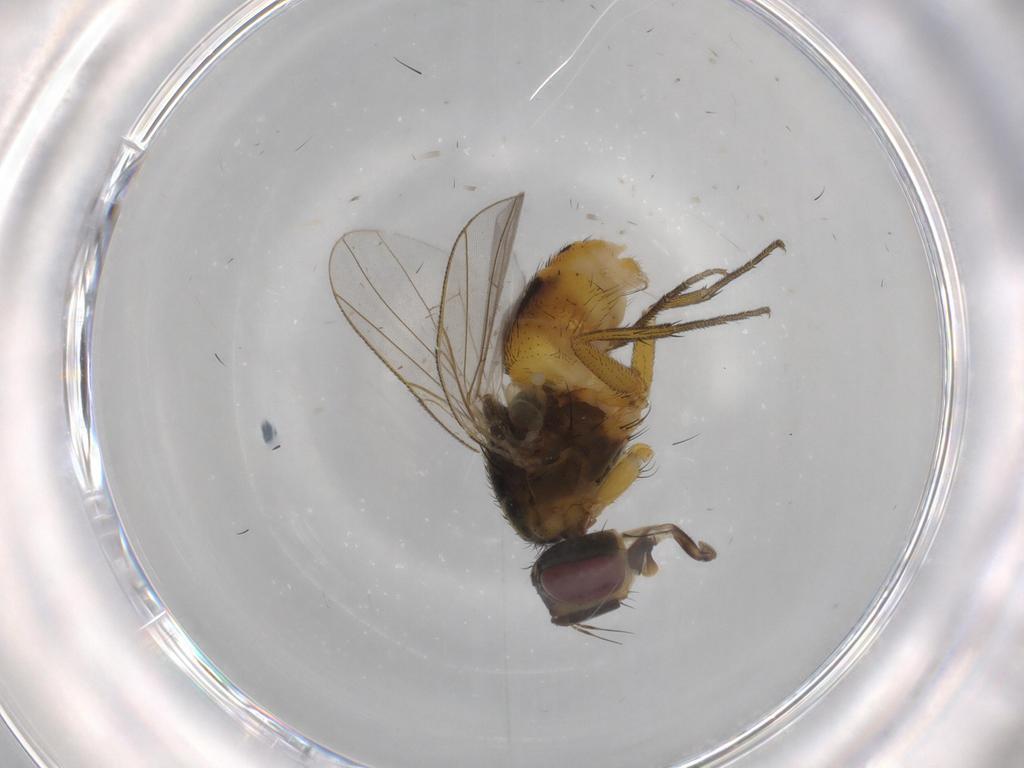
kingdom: Animalia
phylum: Arthropoda
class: Insecta
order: Diptera
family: Muscidae
